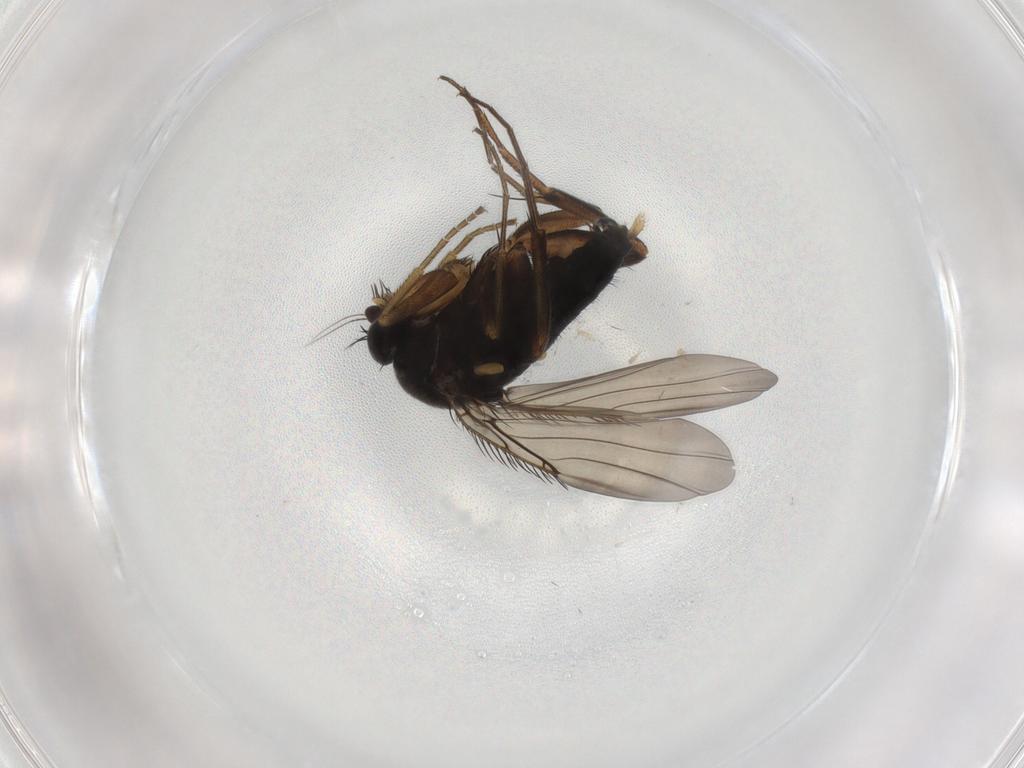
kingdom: Animalia
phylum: Arthropoda
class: Insecta
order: Diptera
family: Phoridae
